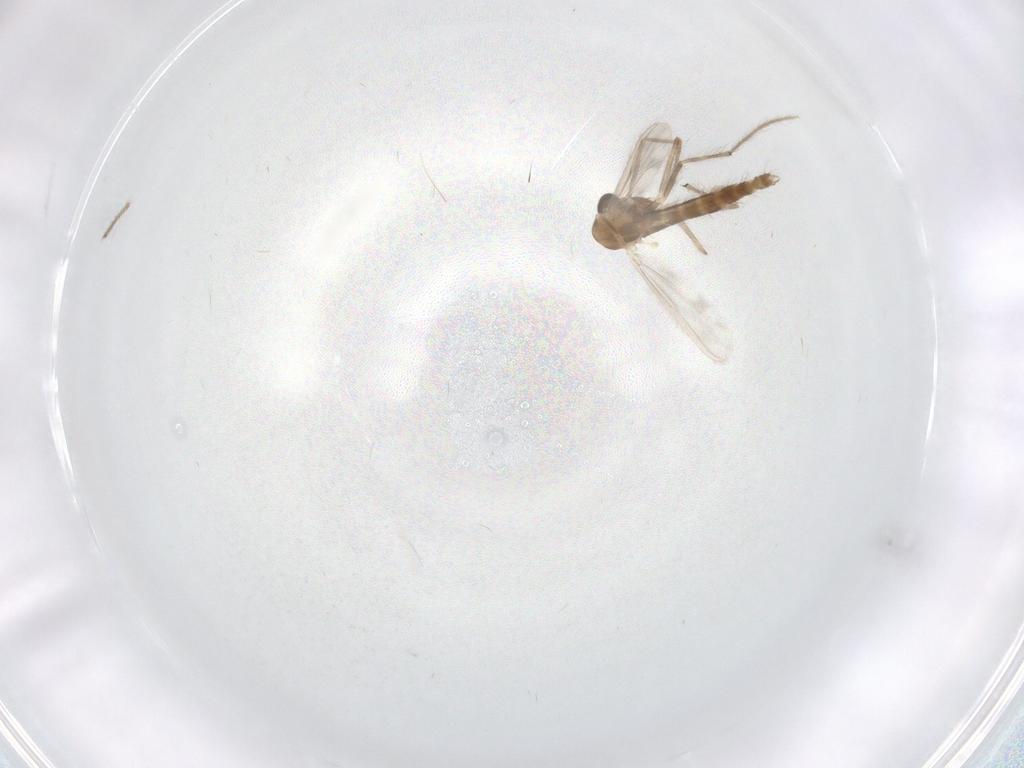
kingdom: Animalia
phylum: Arthropoda
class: Insecta
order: Diptera
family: Chironomidae
